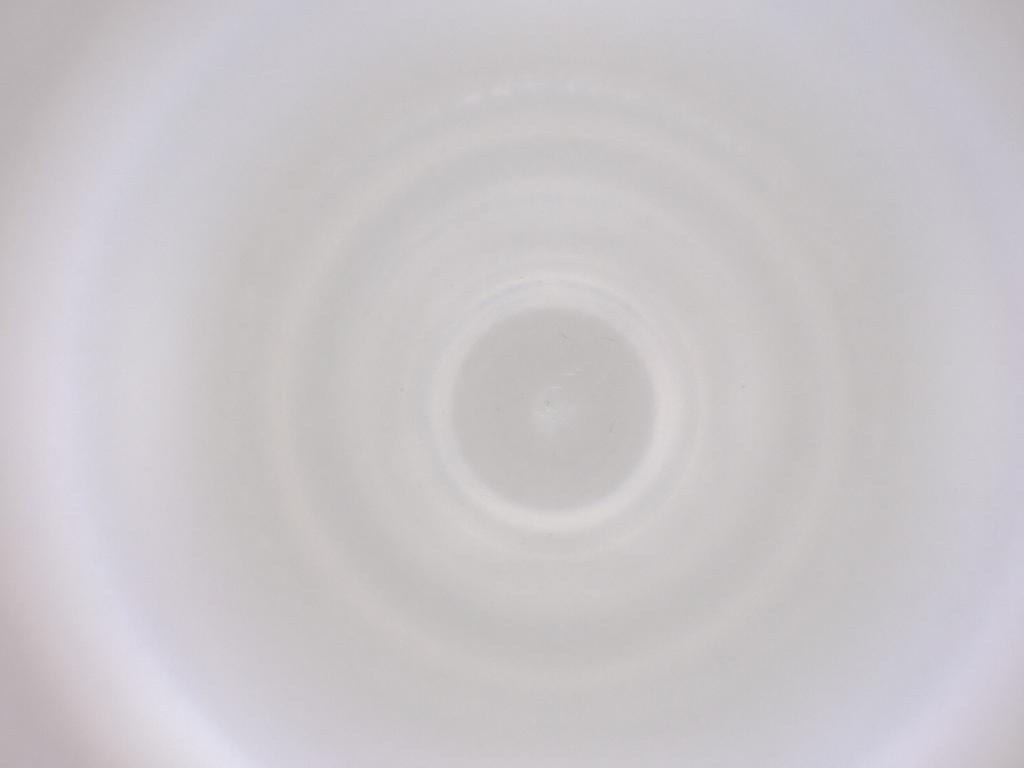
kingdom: Animalia
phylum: Arthropoda
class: Insecta
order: Diptera
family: Cecidomyiidae
